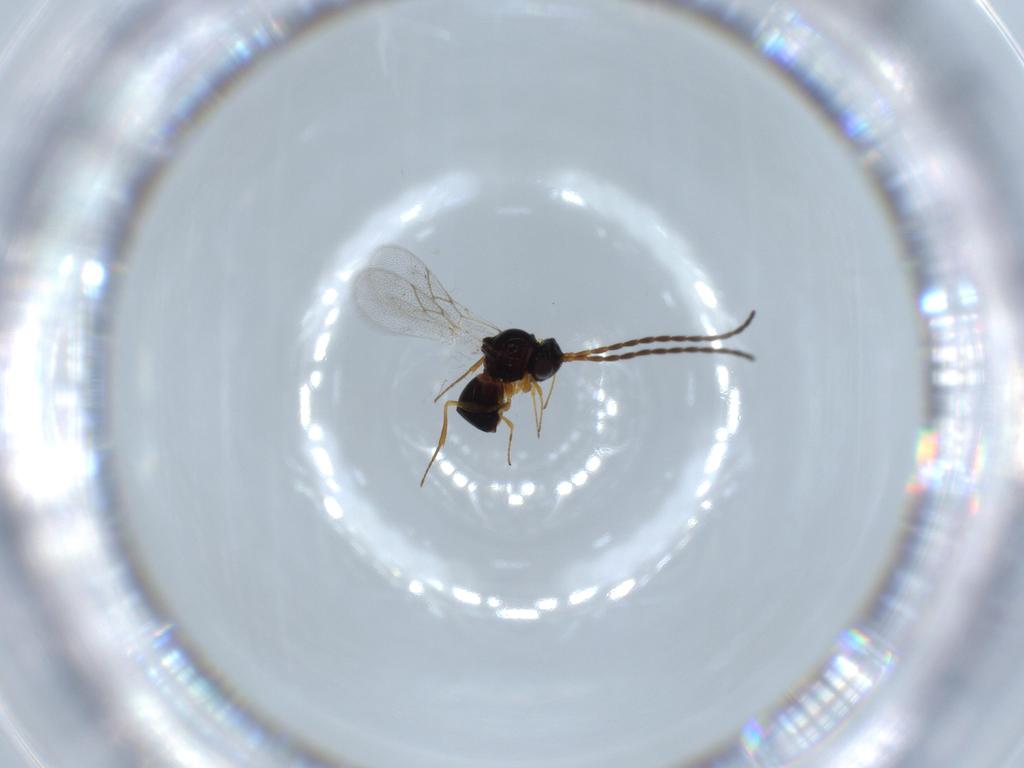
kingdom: Animalia
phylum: Arthropoda
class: Insecta
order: Hymenoptera
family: Figitidae
